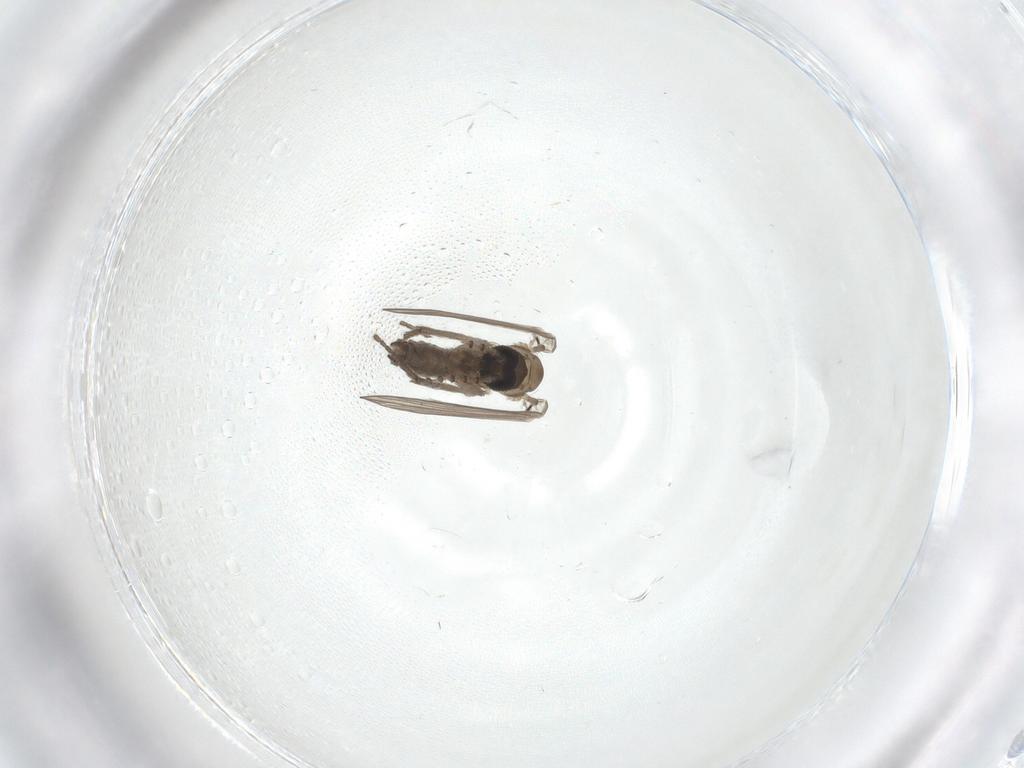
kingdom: Animalia
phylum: Arthropoda
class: Insecta
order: Diptera
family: Psychodidae
